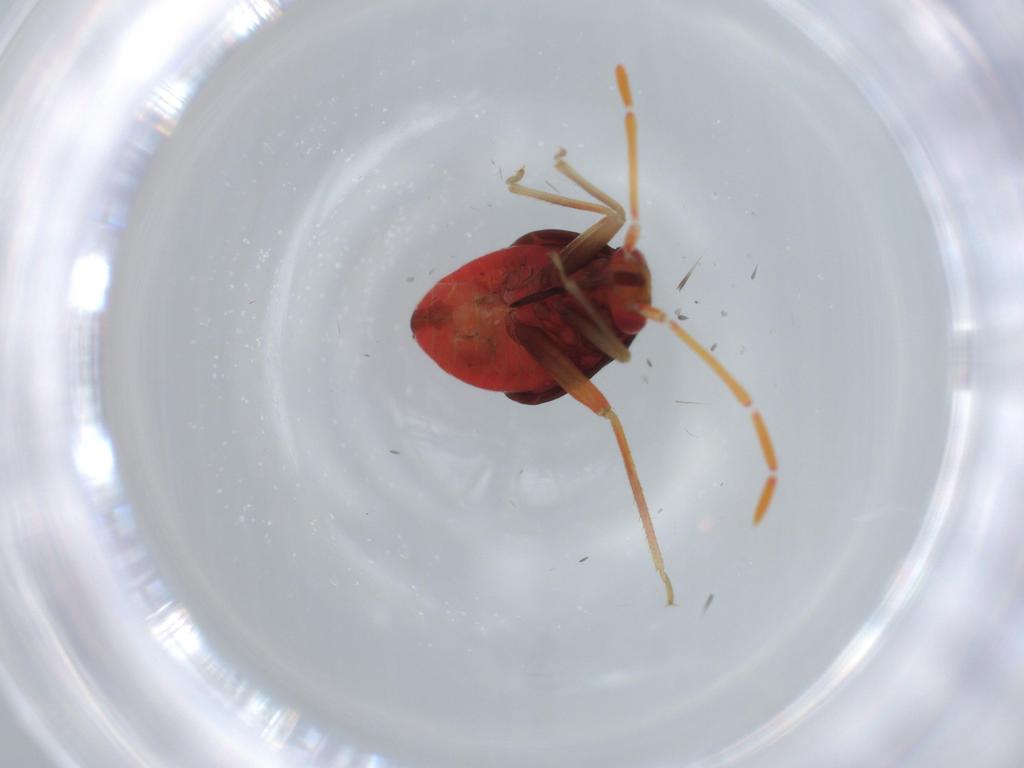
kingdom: Animalia
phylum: Arthropoda
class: Insecta
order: Hemiptera
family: Miridae
